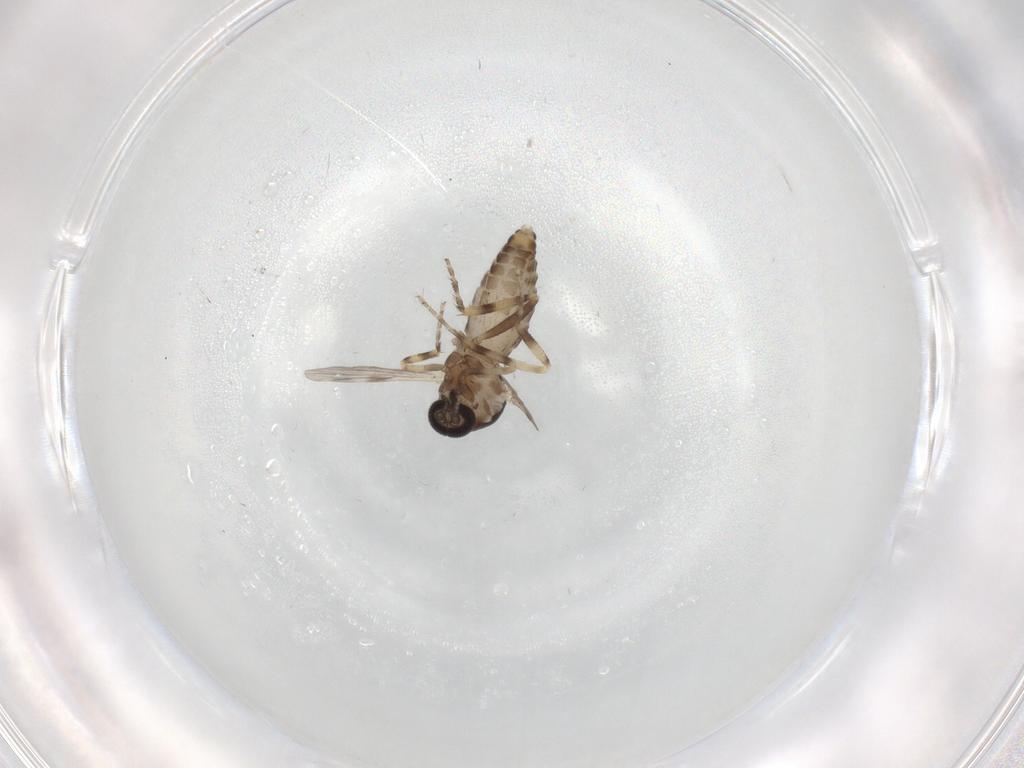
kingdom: Animalia
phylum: Arthropoda
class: Insecta
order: Diptera
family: Ceratopogonidae
